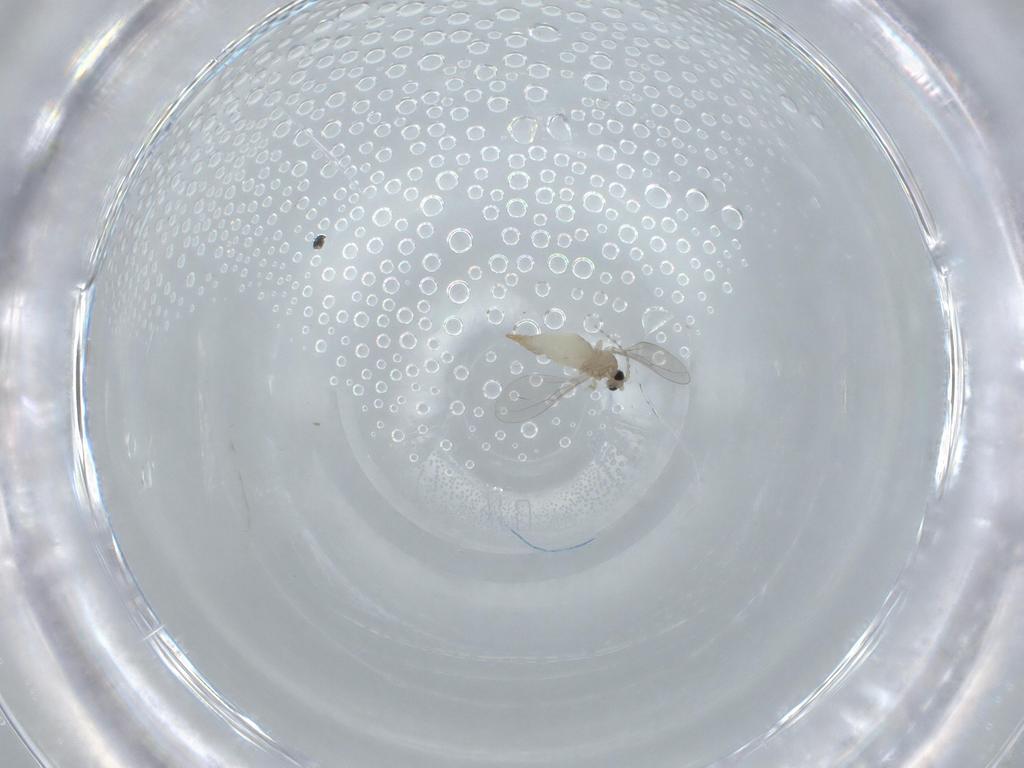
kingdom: Animalia
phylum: Arthropoda
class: Insecta
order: Diptera
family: Cecidomyiidae
